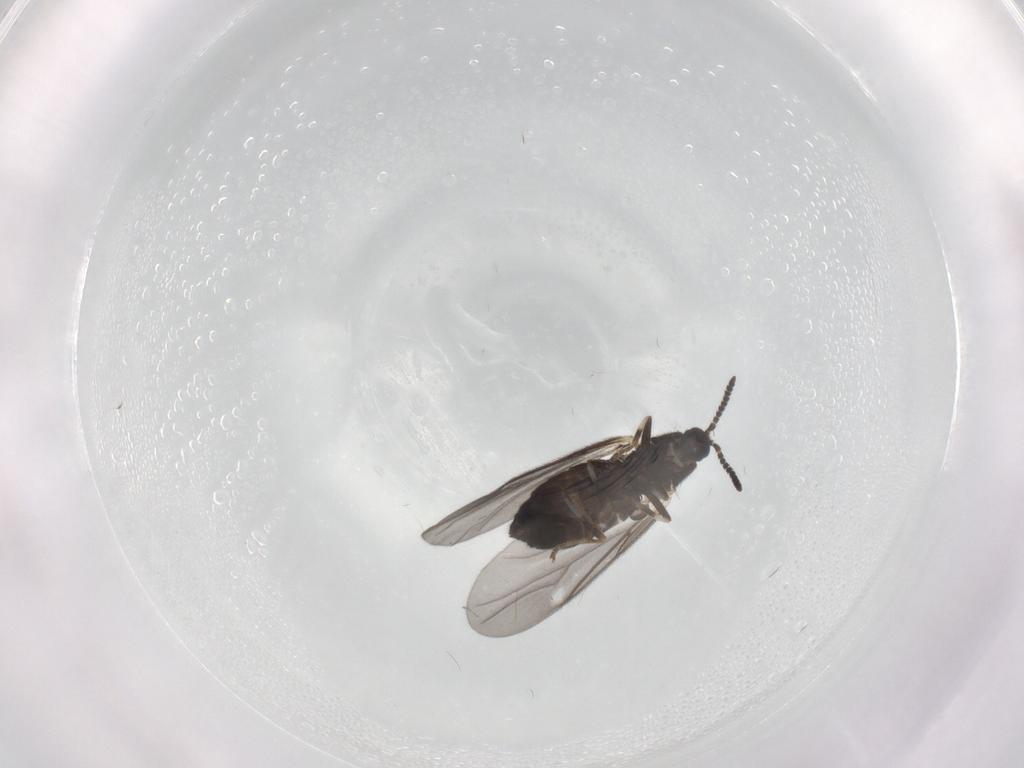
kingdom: Animalia
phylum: Arthropoda
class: Insecta
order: Diptera
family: Scatopsidae
